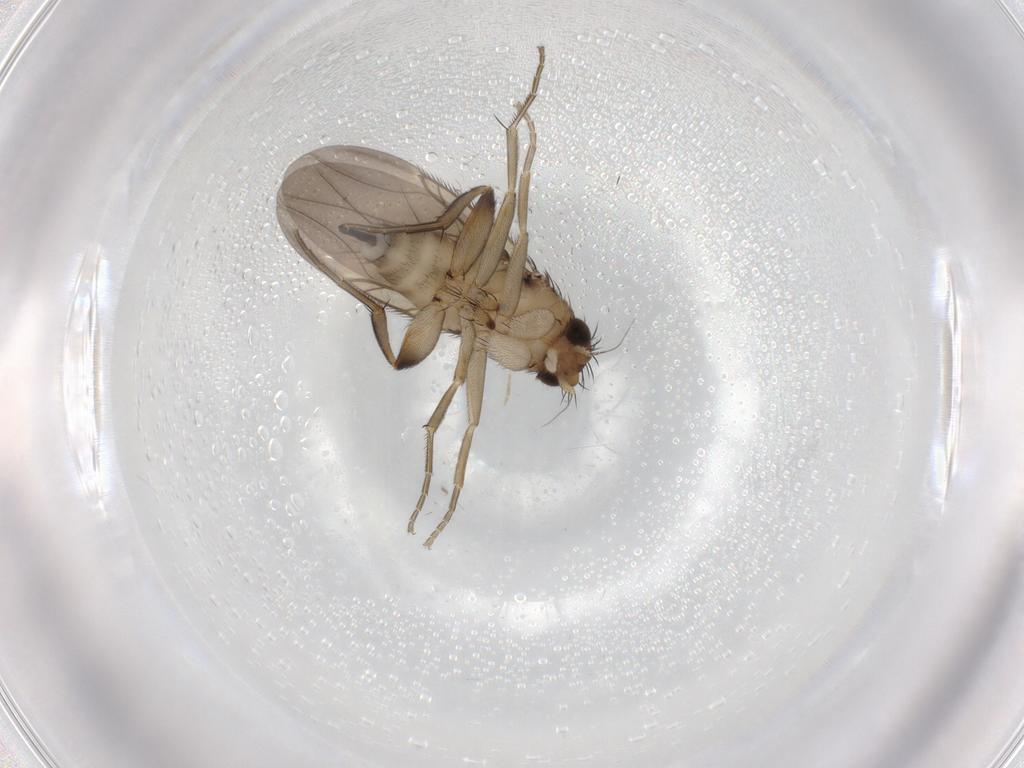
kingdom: Animalia
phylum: Arthropoda
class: Insecta
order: Diptera
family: Phoridae
